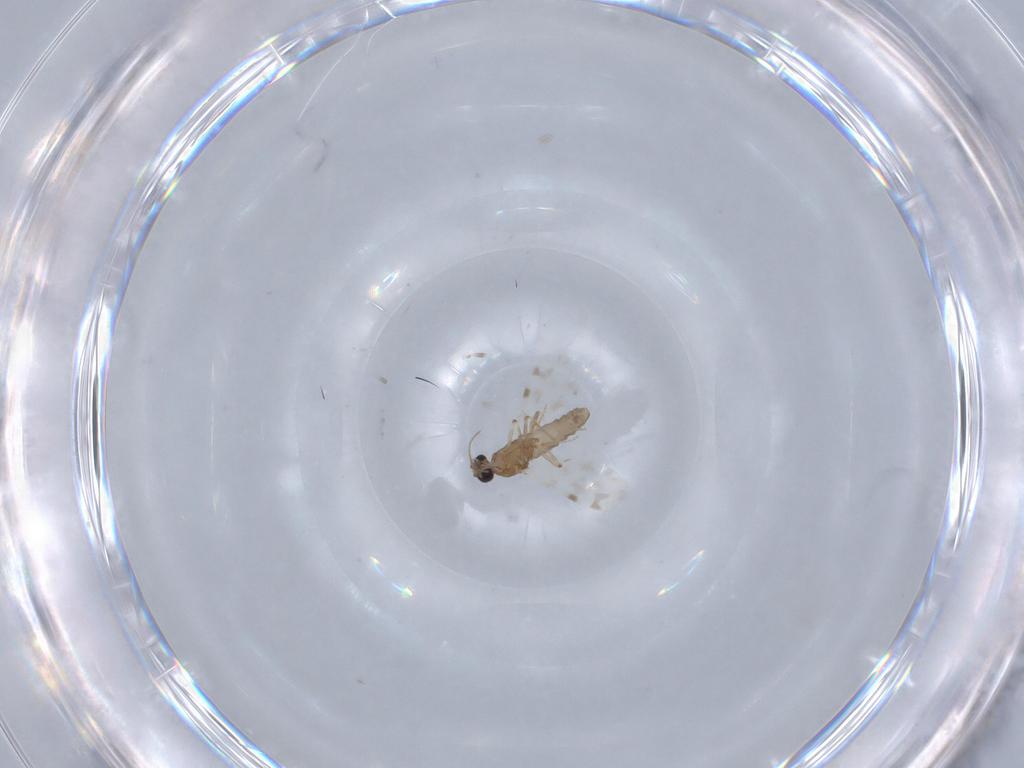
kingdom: Animalia
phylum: Arthropoda
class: Insecta
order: Diptera
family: Scatopsidae
